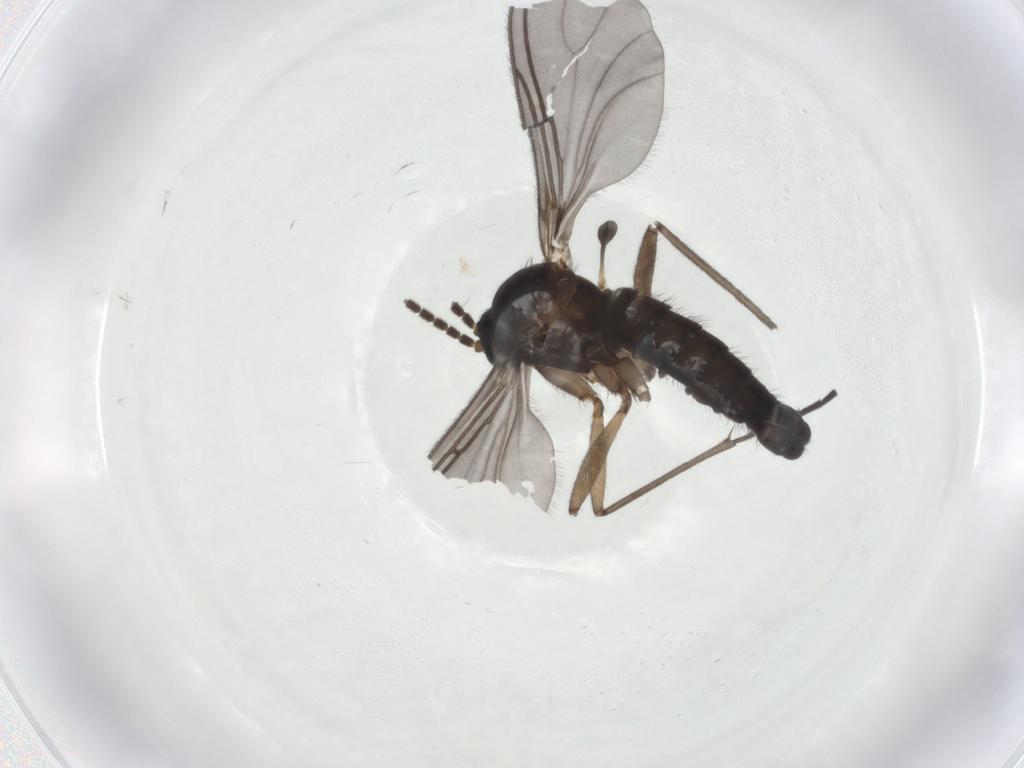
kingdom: Animalia
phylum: Arthropoda
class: Insecta
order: Diptera
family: Sciaridae
